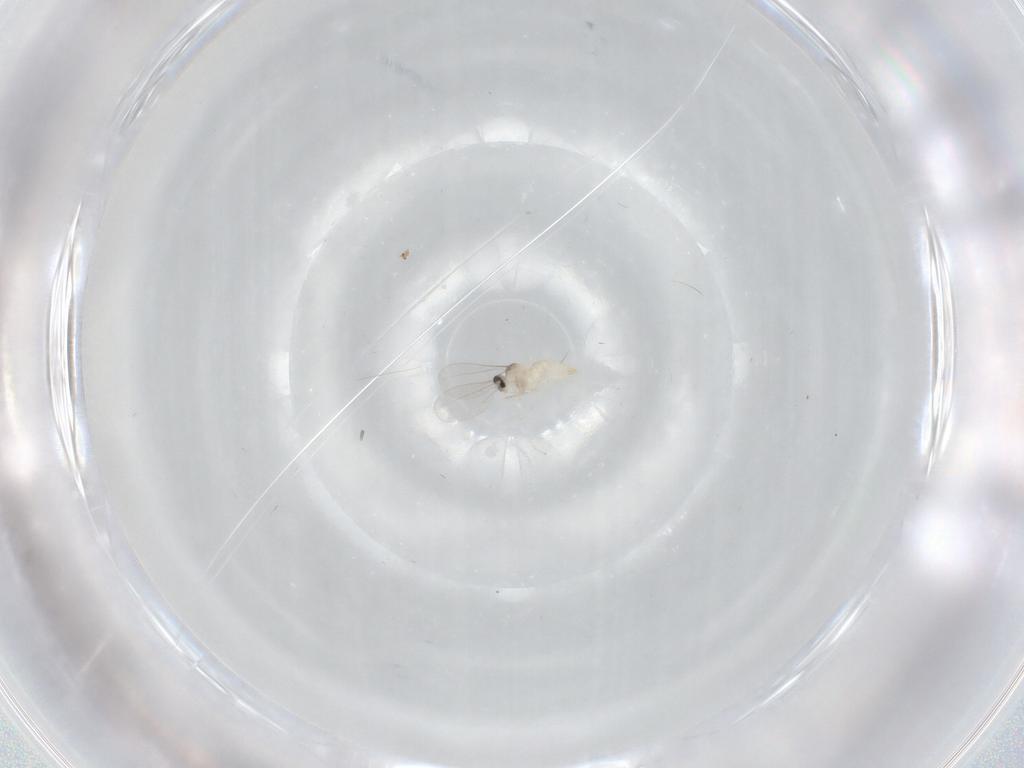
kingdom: Animalia
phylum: Arthropoda
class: Insecta
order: Diptera
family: Cecidomyiidae
